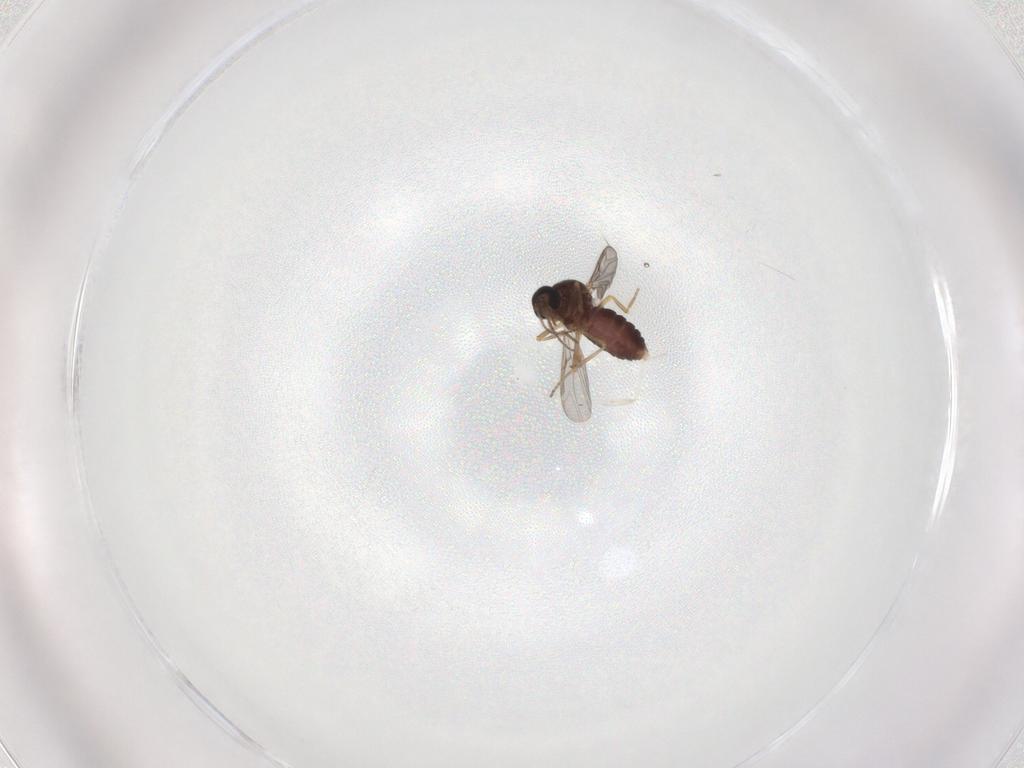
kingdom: Animalia
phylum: Arthropoda
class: Insecta
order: Diptera
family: Ceratopogonidae
